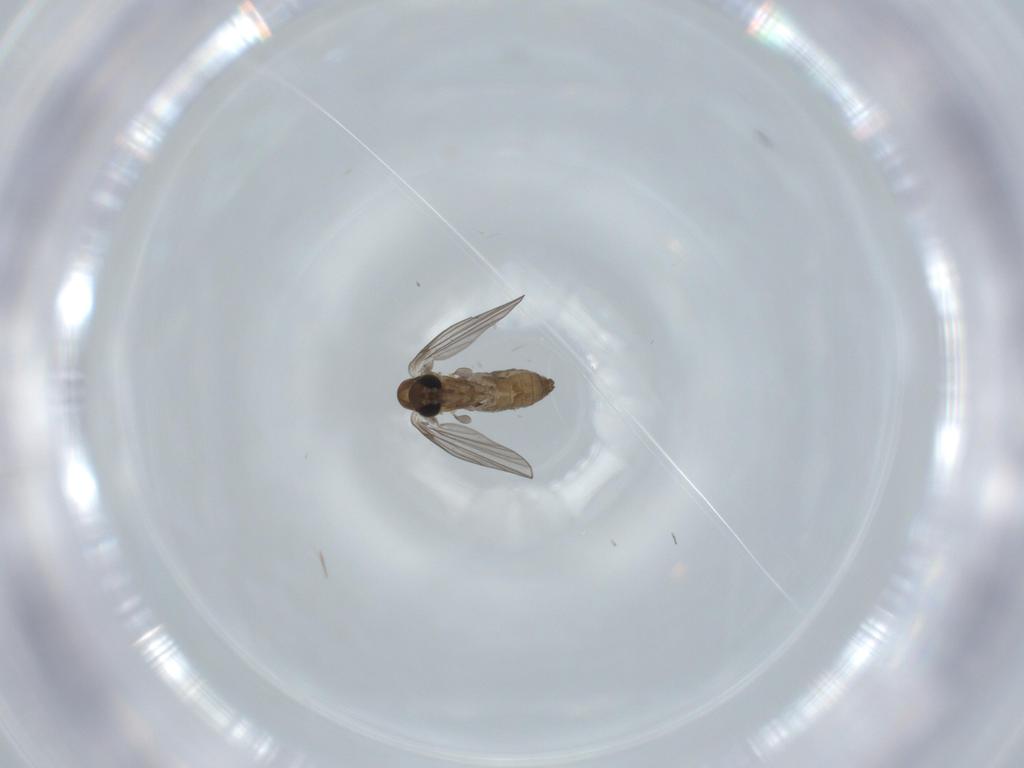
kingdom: Animalia
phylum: Arthropoda
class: Insecta
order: Diptera
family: Psychodidae
